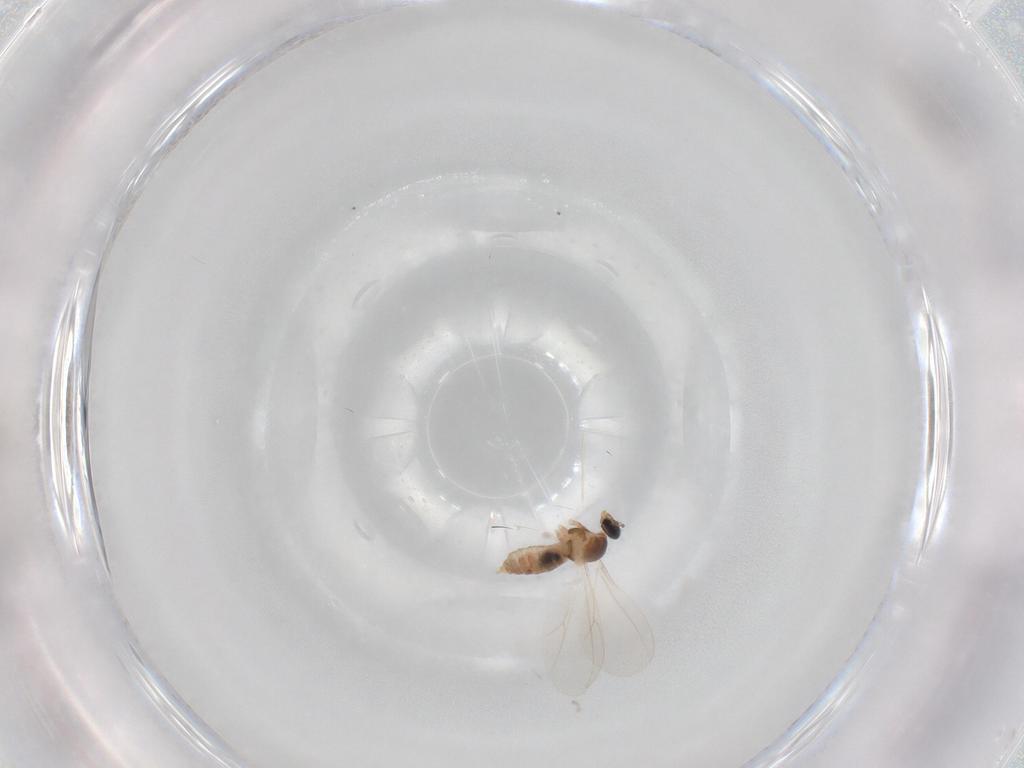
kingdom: Animalia
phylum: Arthropoda
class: Insecta
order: Diptera
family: Cecidomyiidae
